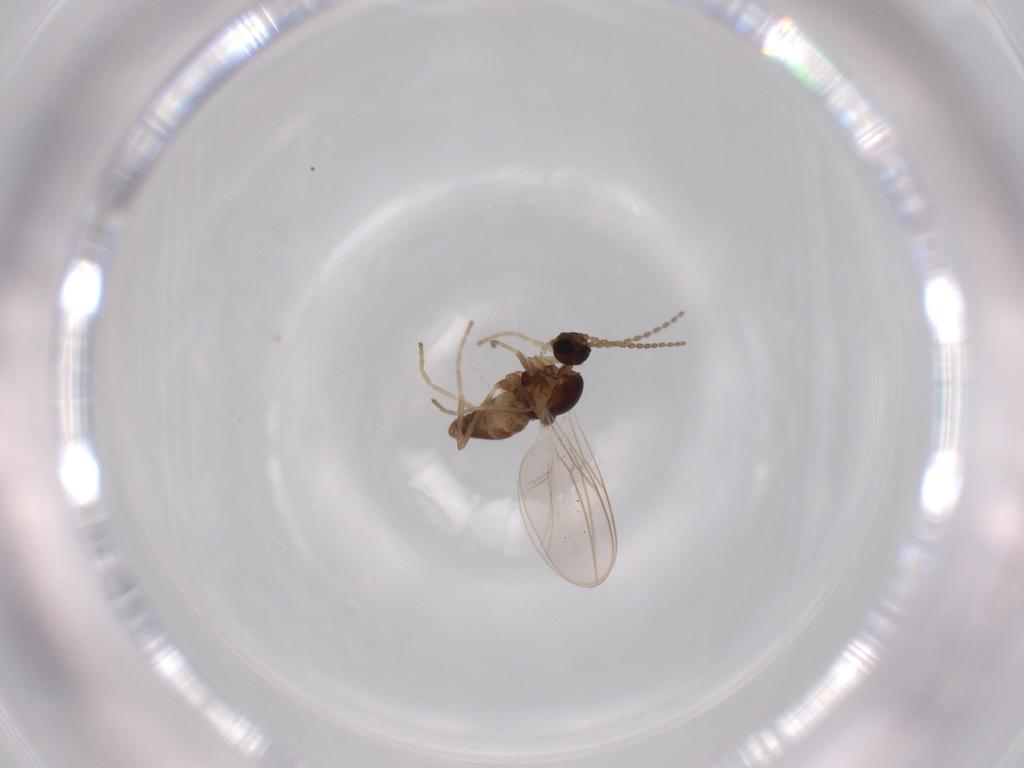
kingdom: Animalia
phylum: Arthropoda
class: Insecta
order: Diptera
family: Cecidomyiidae
